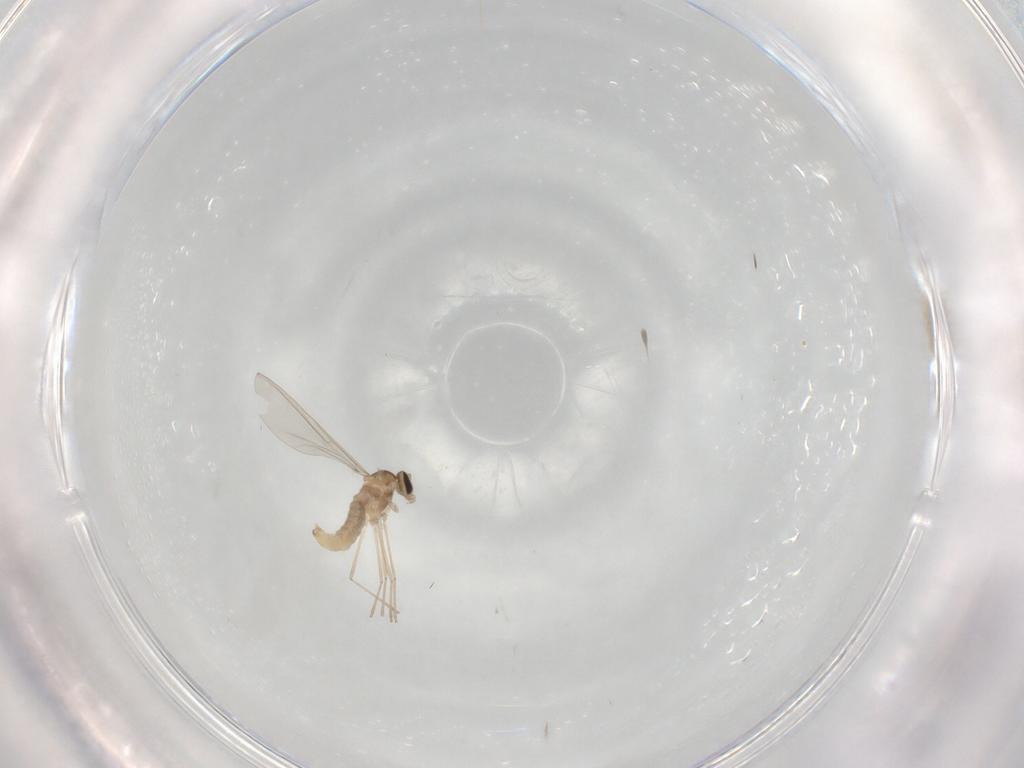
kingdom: Animalia
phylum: Arthropoda
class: Insecta
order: Diptera
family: Cecidomyiidae
